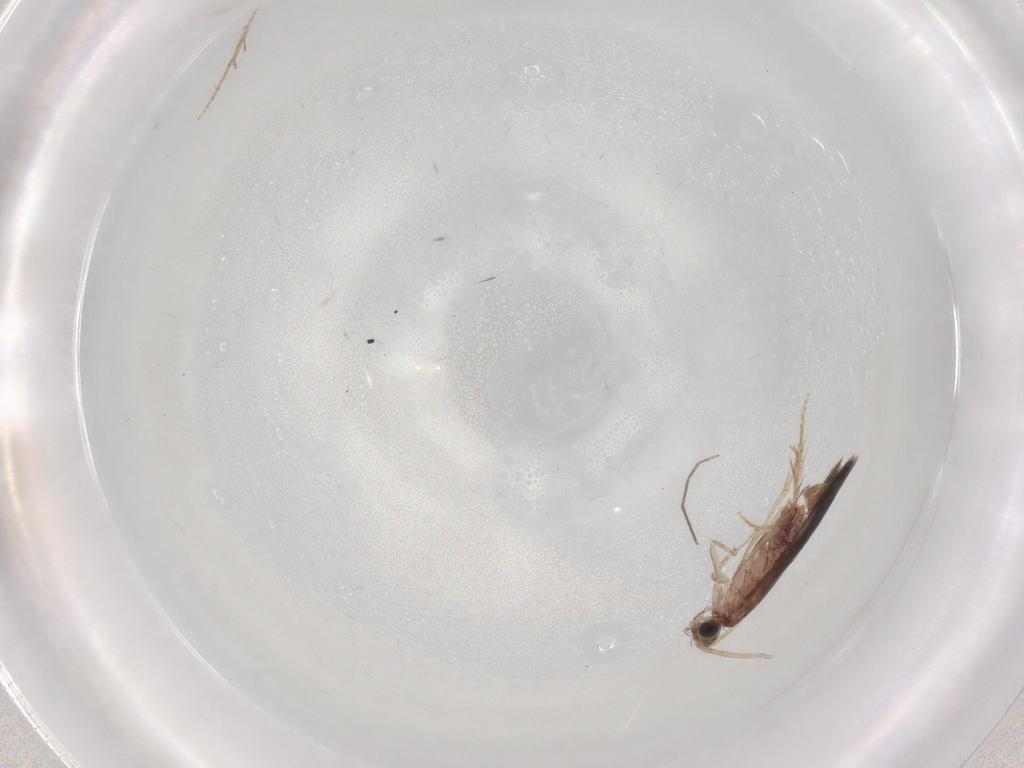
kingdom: Animalia
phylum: Arthropoda
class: Insecta
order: Trichoptera
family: Hydroptilidae
